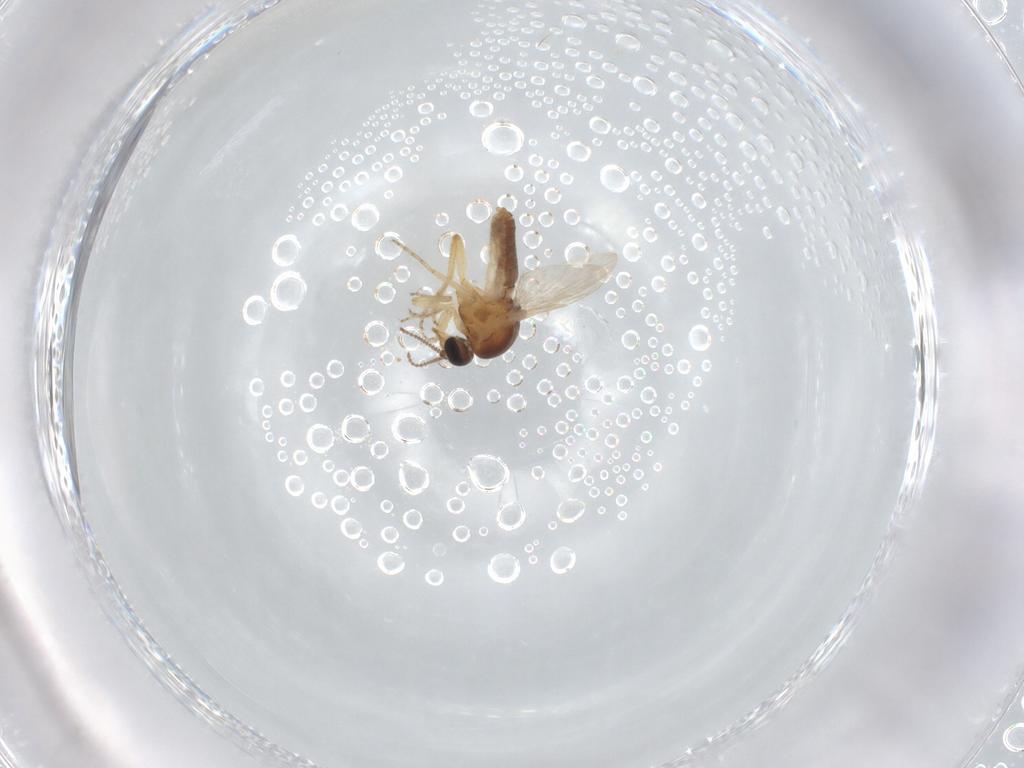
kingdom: Animalia
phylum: Arthropoda
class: Insecta
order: Diptera
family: Ceratopogonidae
